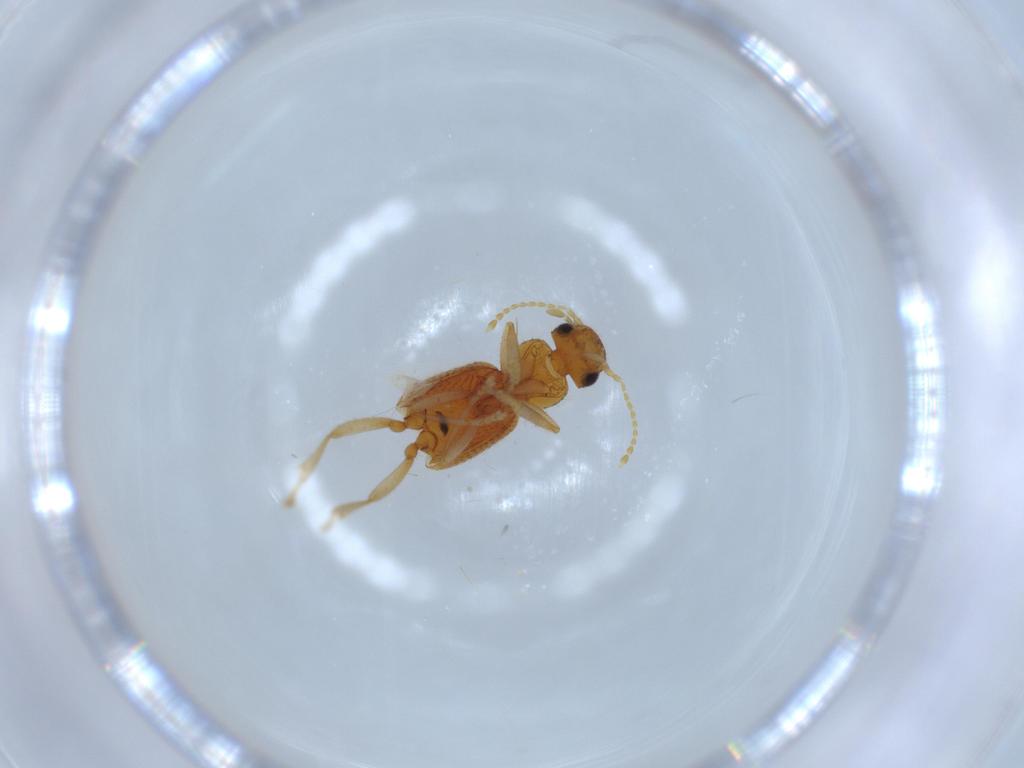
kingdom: Animalia
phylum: Arthropoda
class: Insecta
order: Coleoptera
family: Staphylinidae
